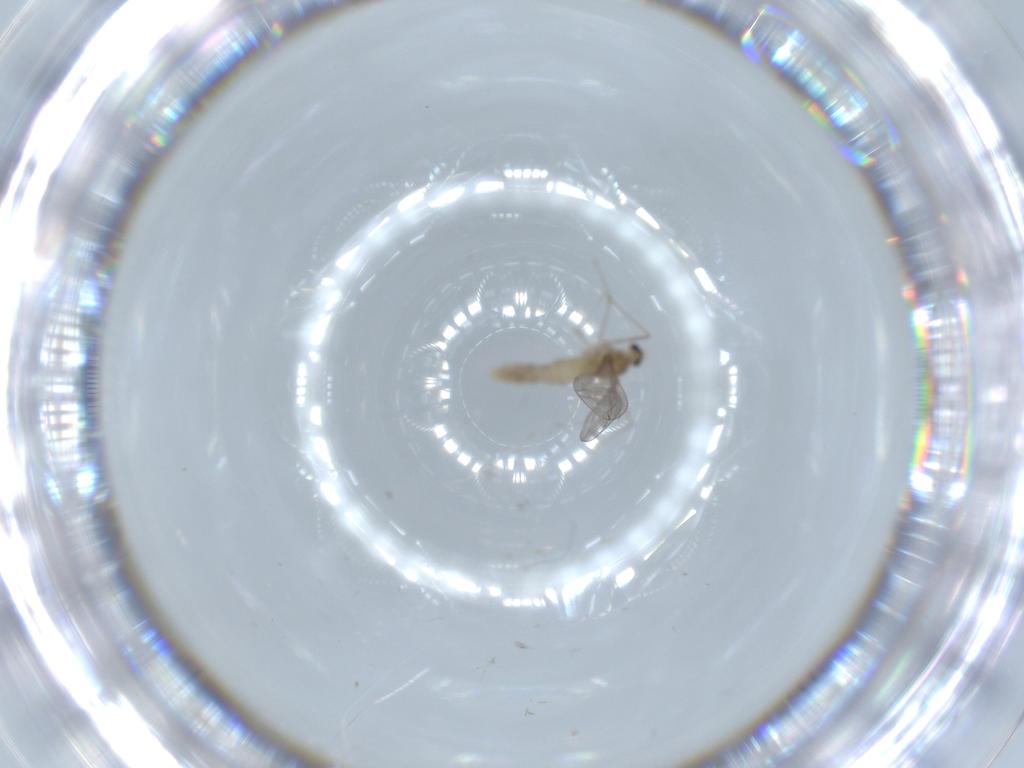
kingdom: Animalia
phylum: Arthropoda
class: Insecta
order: Diptera
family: Cecidomyiidae
